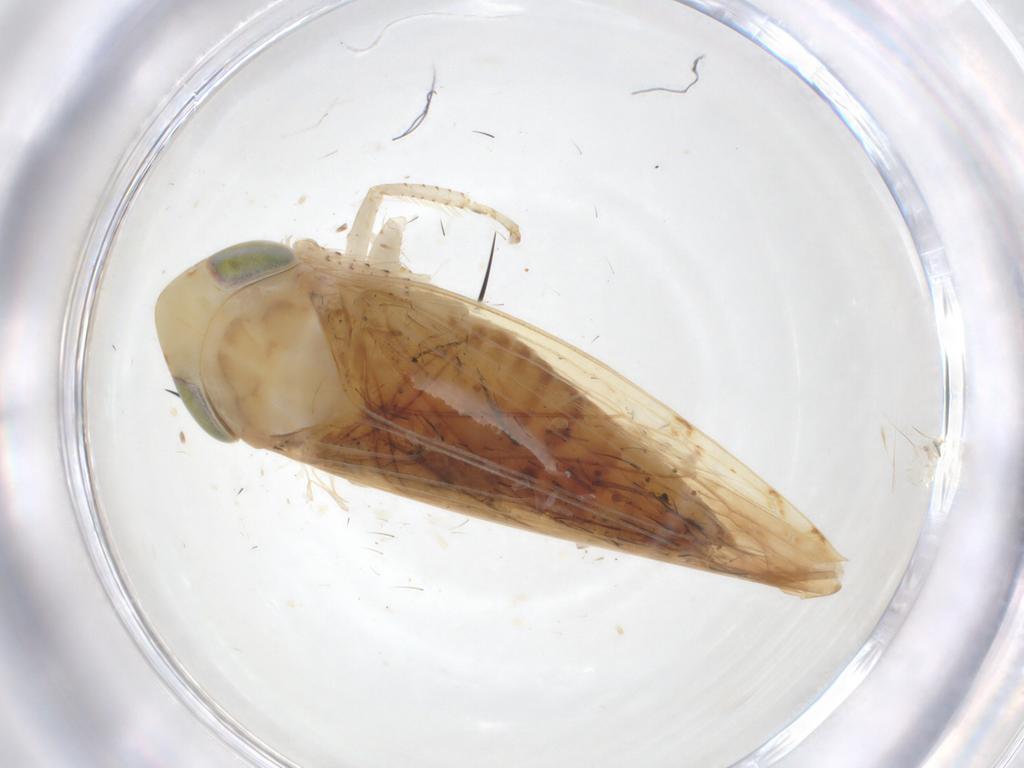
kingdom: Animalia
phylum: Arthropoda
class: Insecta
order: Hemiptera
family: Cicadellidae
